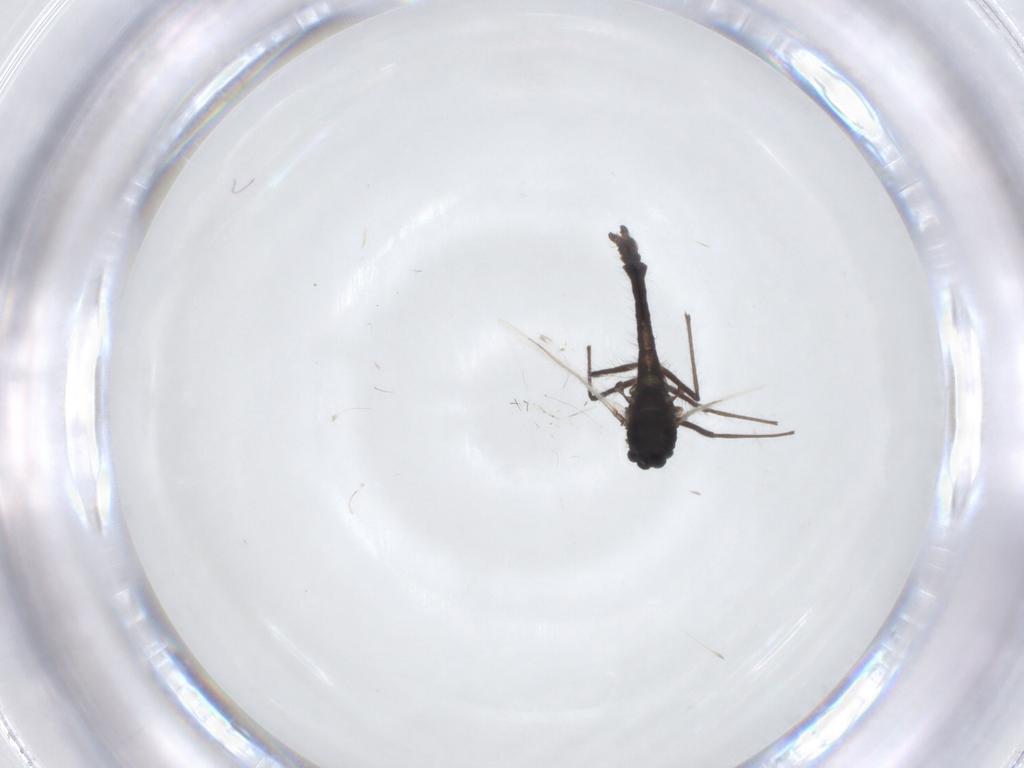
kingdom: Animalia
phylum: Arthropoda
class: Insecta
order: Diptera
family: Chironomidae
